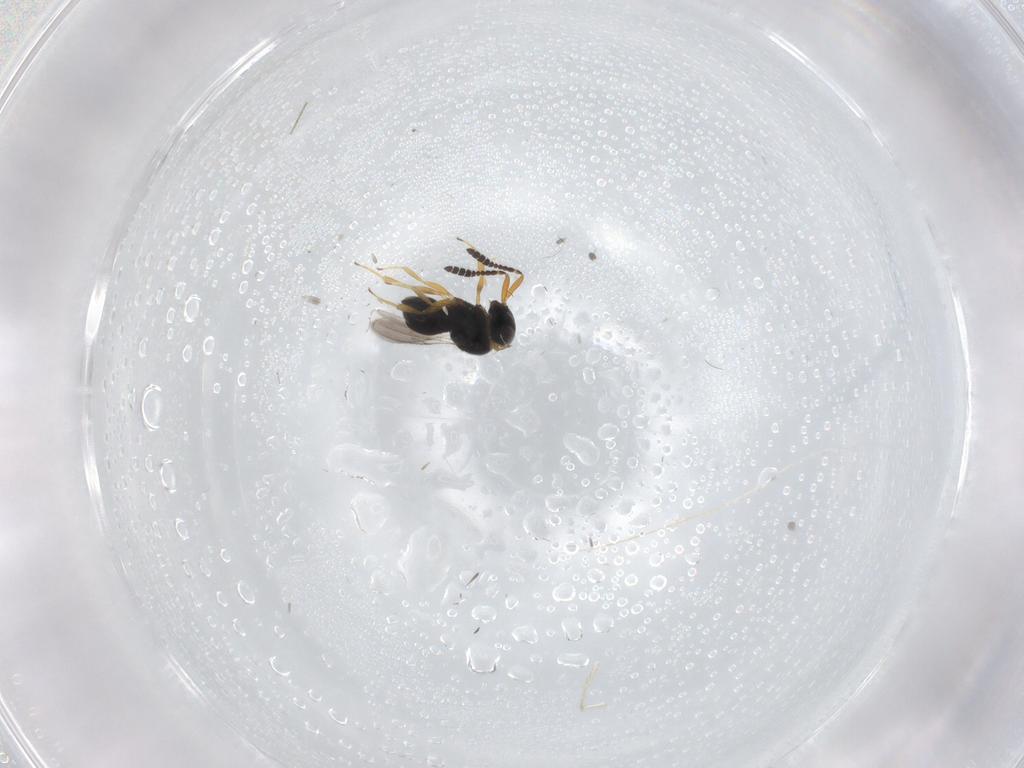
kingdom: Animalia
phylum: Arthropoda
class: Insecta
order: Hymenoptera
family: Scelionidae
